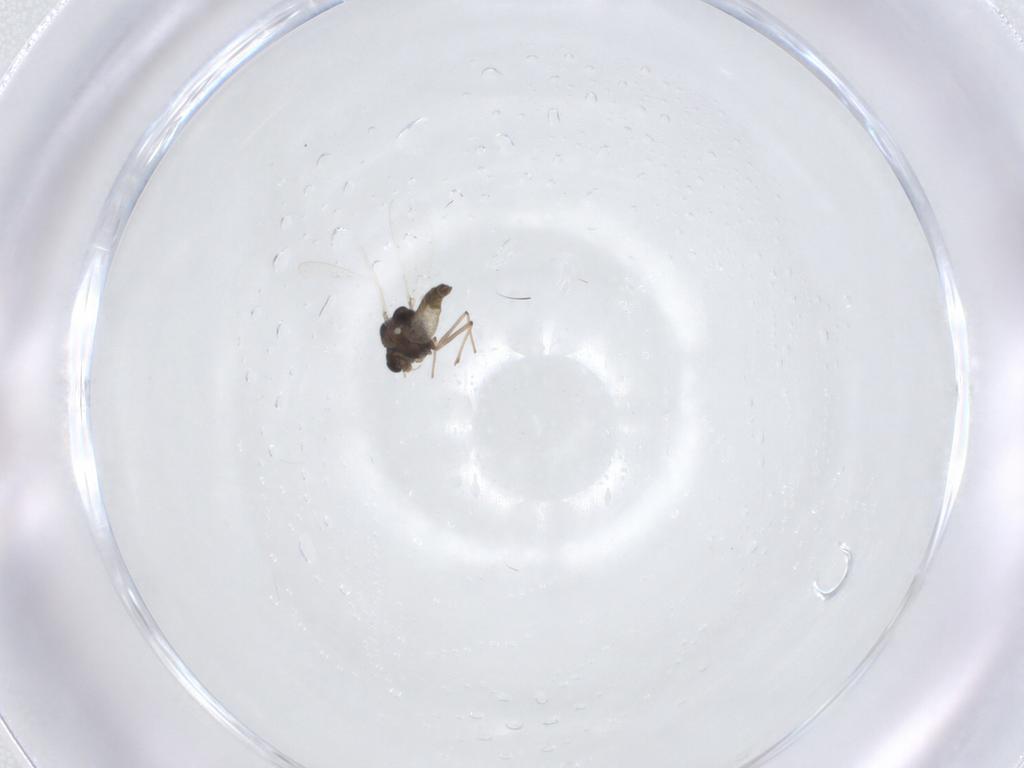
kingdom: Animalia
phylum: Arthropoda
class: Insecta
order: Diptera
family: Chironomidae
